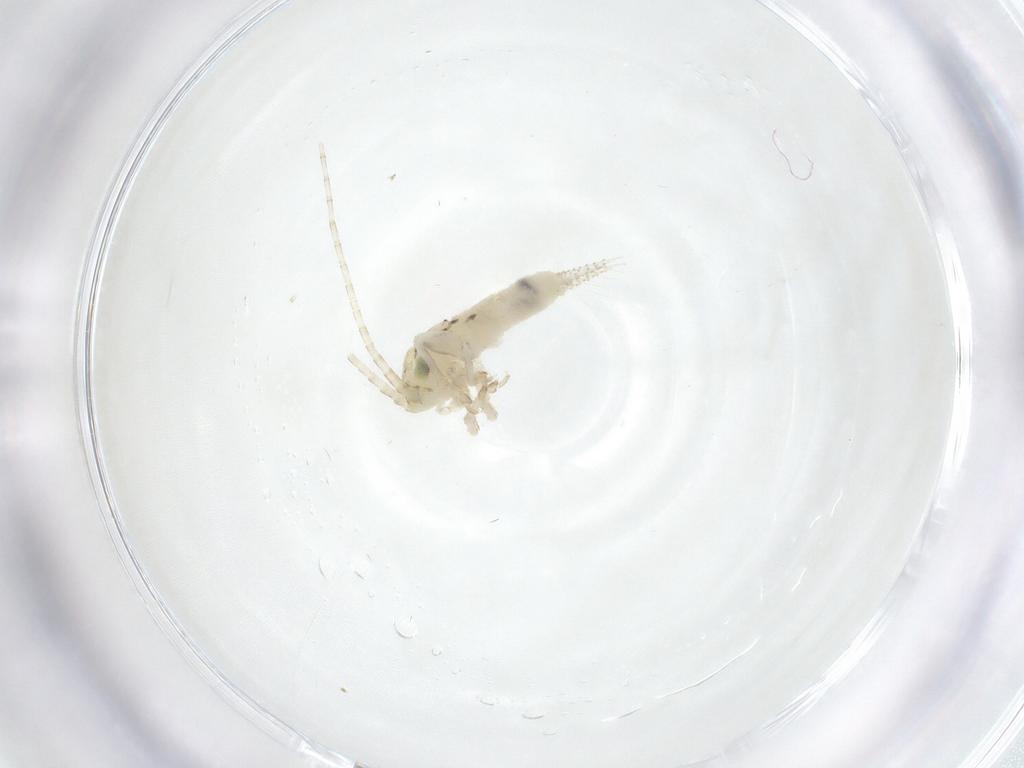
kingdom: Animalia
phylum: Arthropoda
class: Insecta
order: Orthoptera
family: Trigonidiidae
